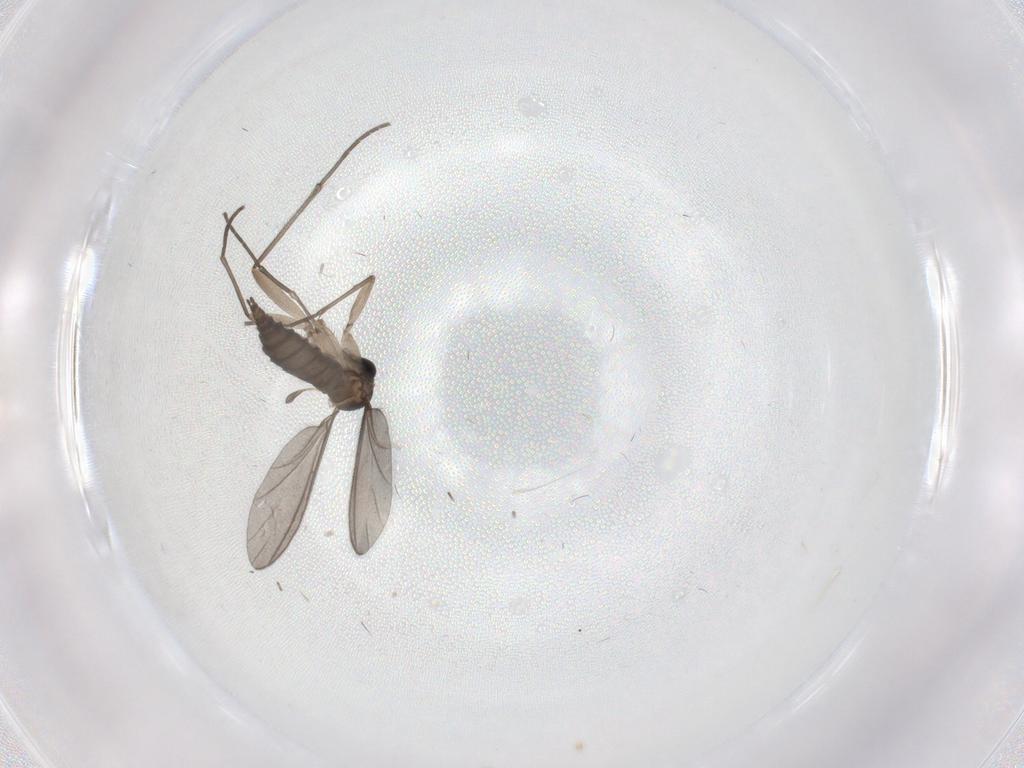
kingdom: Animalia
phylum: Arthropoda
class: Insecta
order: Diptera
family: Sciaridae
